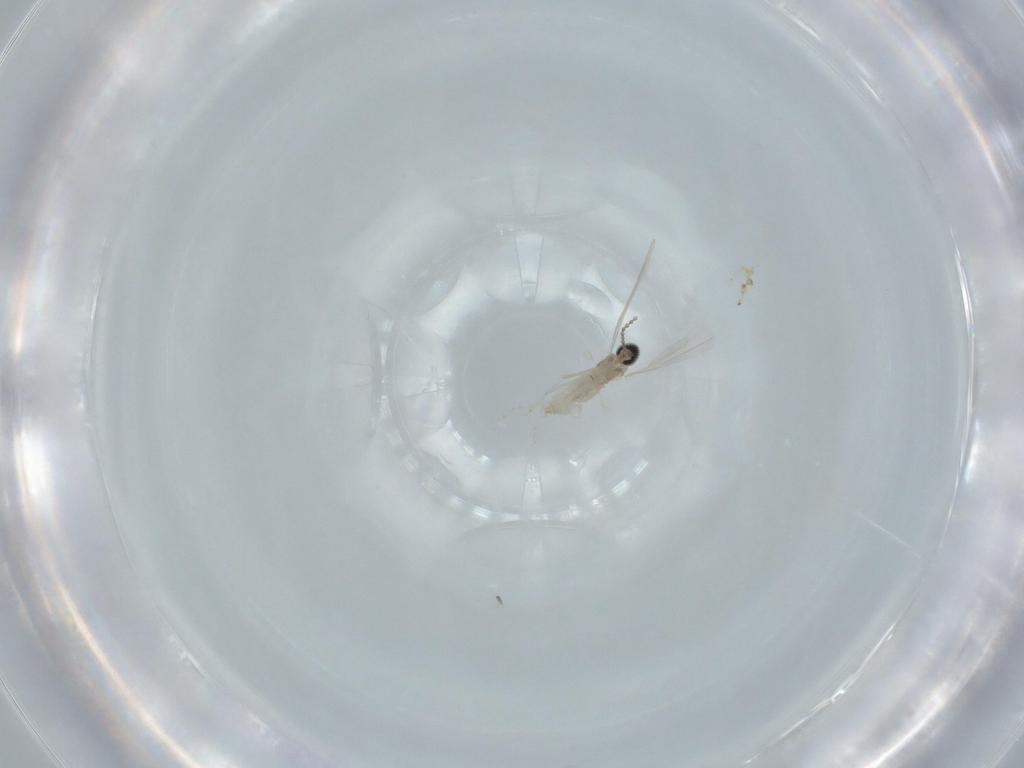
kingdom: Animalia
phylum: Arthropoda
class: Insecta
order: Diptera
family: Cecidomyiidae
